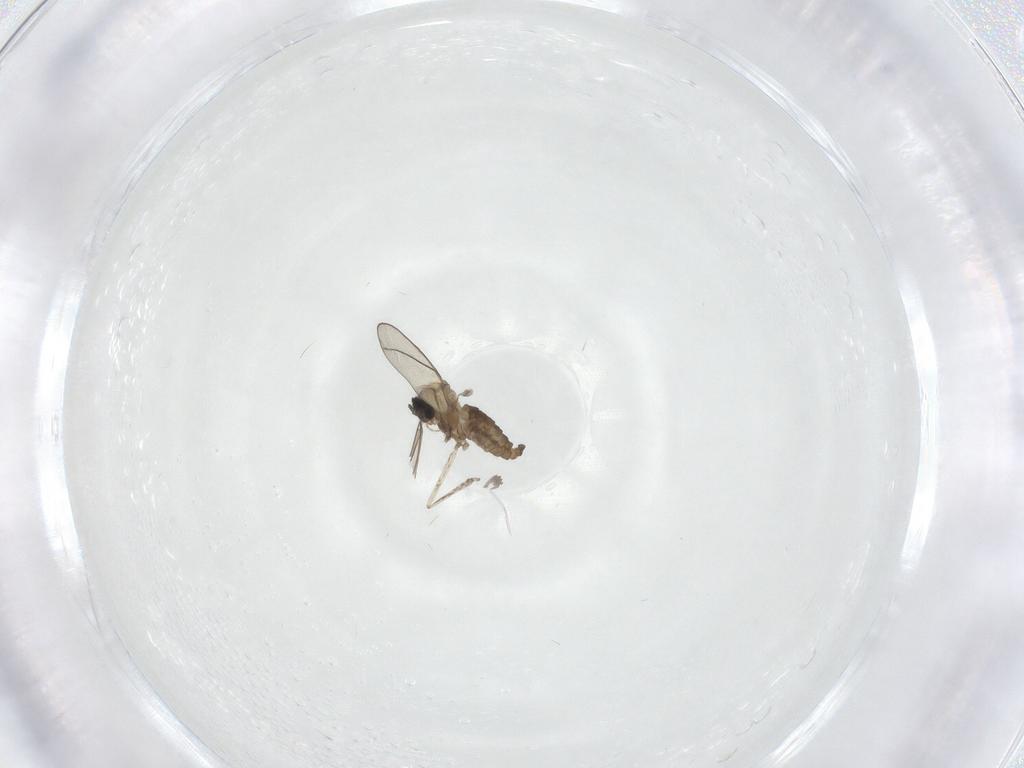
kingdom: Animalia
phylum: Arthropoda
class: Insecta
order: Diptera
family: Cecidomyiidae
